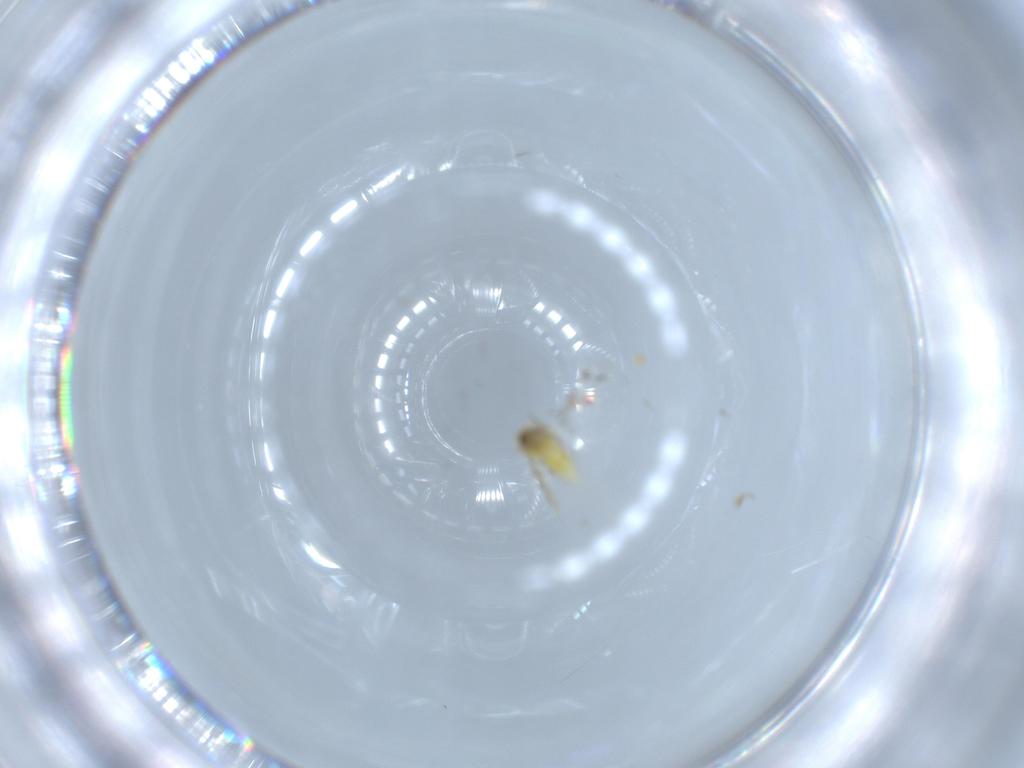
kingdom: Animalia
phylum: Arthropoda
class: Insecta
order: Hemiptera
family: Aleyrodidae
